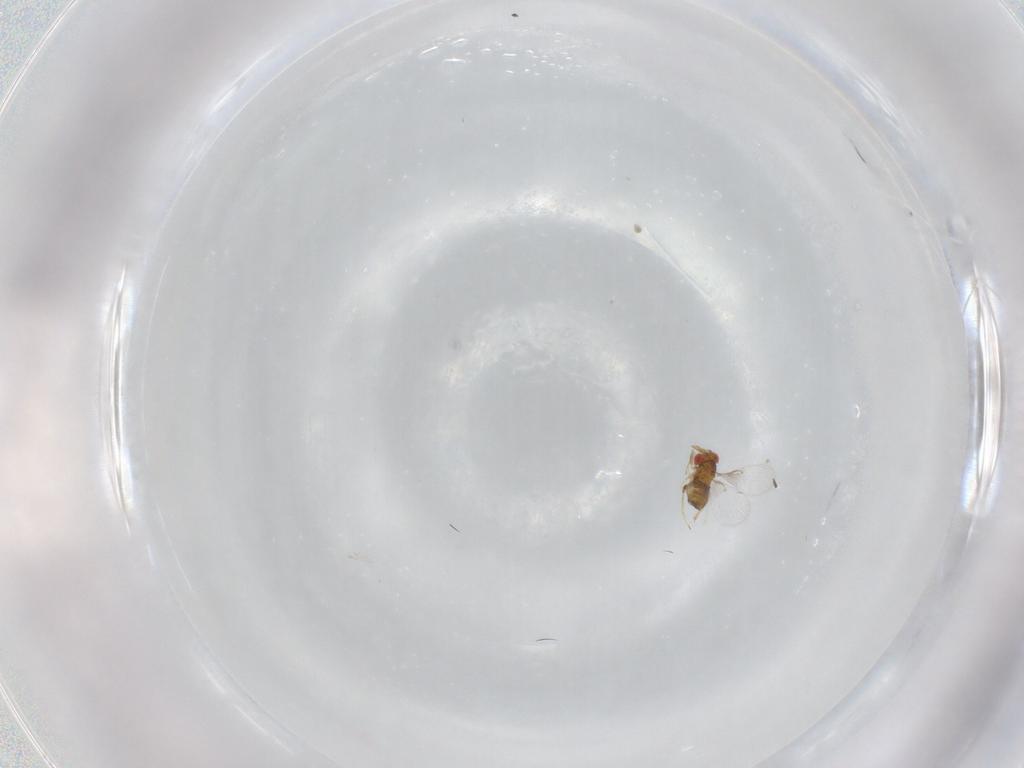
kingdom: Animalia
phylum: Arthropoda
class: Insecta
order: Hymenoptera
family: Trichogrammatidae
